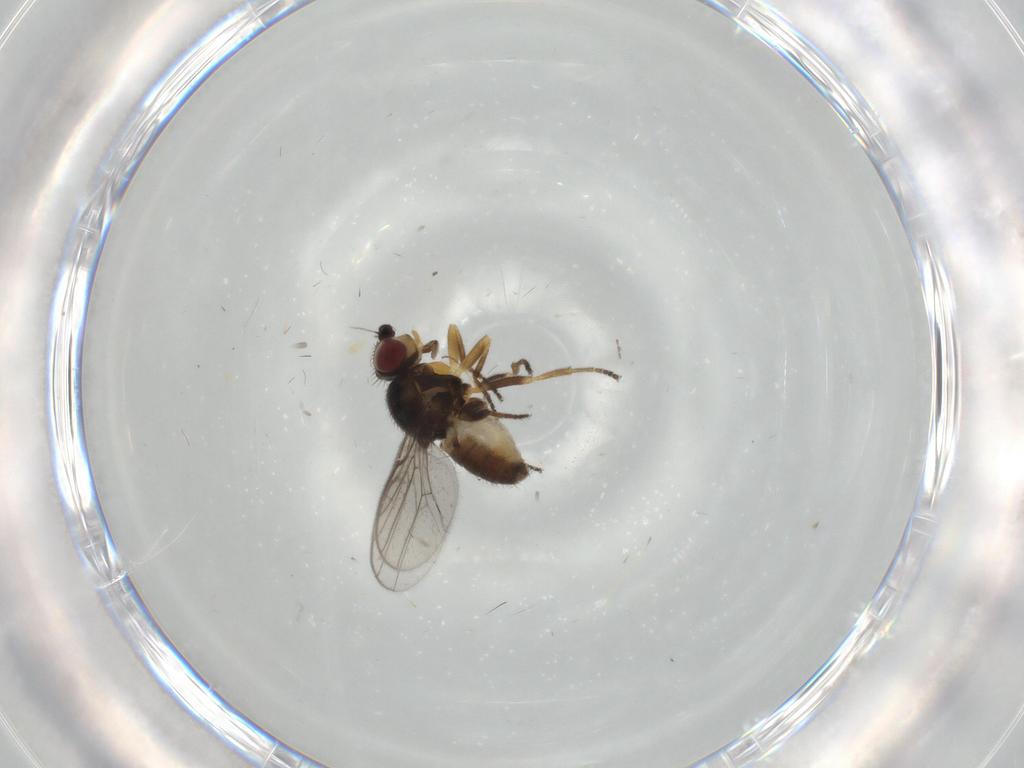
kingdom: Animalia
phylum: Arthropoda
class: Insecta
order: Diptera
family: Chloropidae
